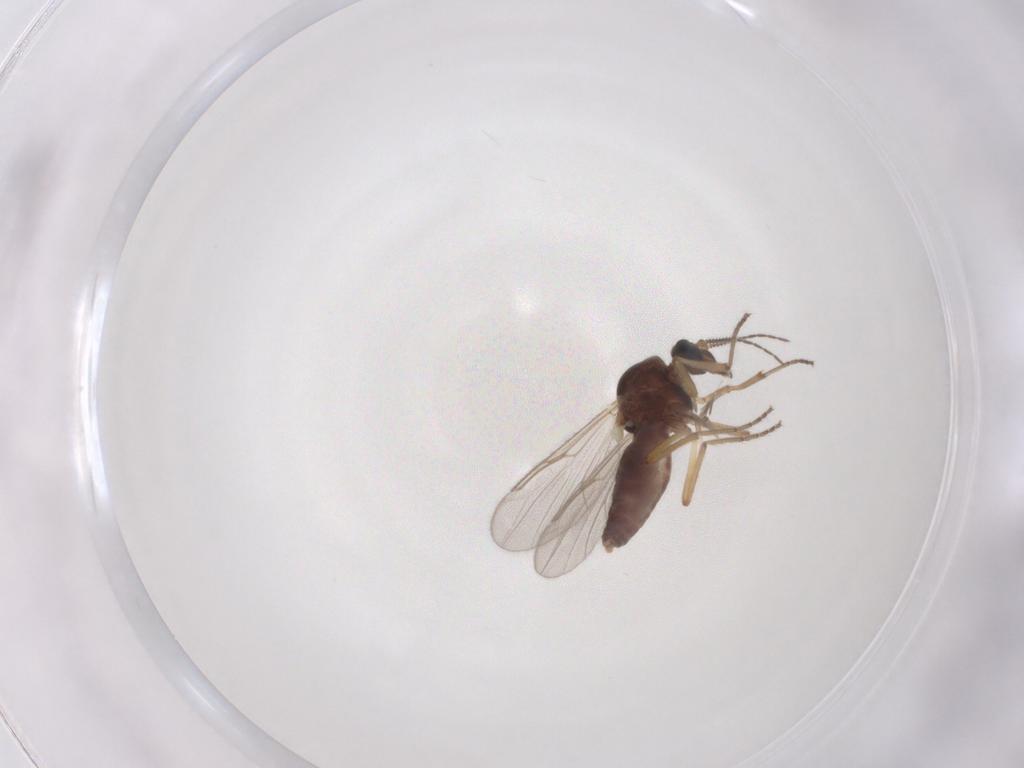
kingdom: Animalia
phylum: Arthropoda
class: Insecta
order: Diptera
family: Ceratopogonidae
